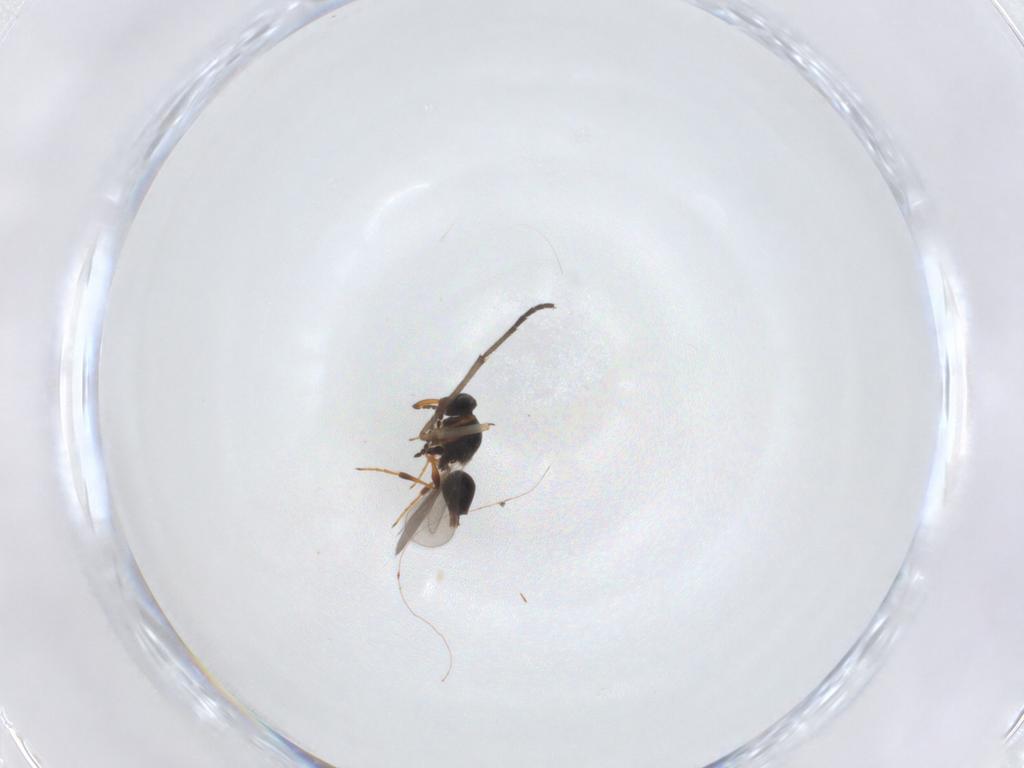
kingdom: Animalia
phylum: Arthropoda
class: Insecta
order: Hymenoptera
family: Platygastridae
